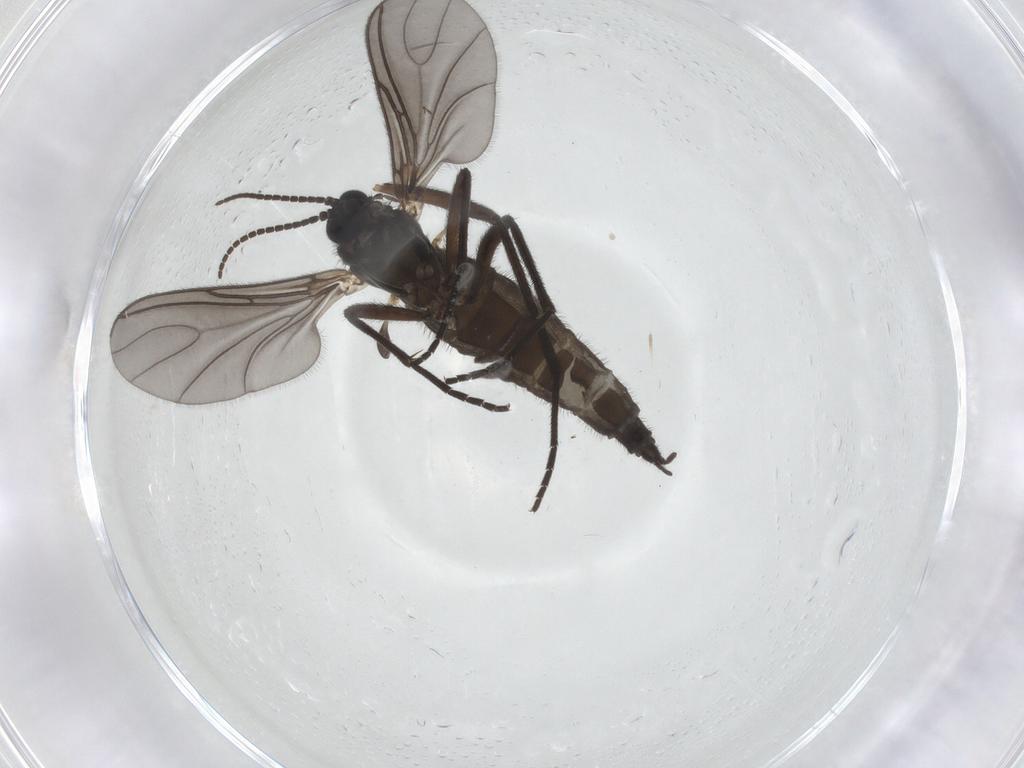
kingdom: Animalia
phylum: Arthropoda
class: Insecta
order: Diptera
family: Sciaridae
